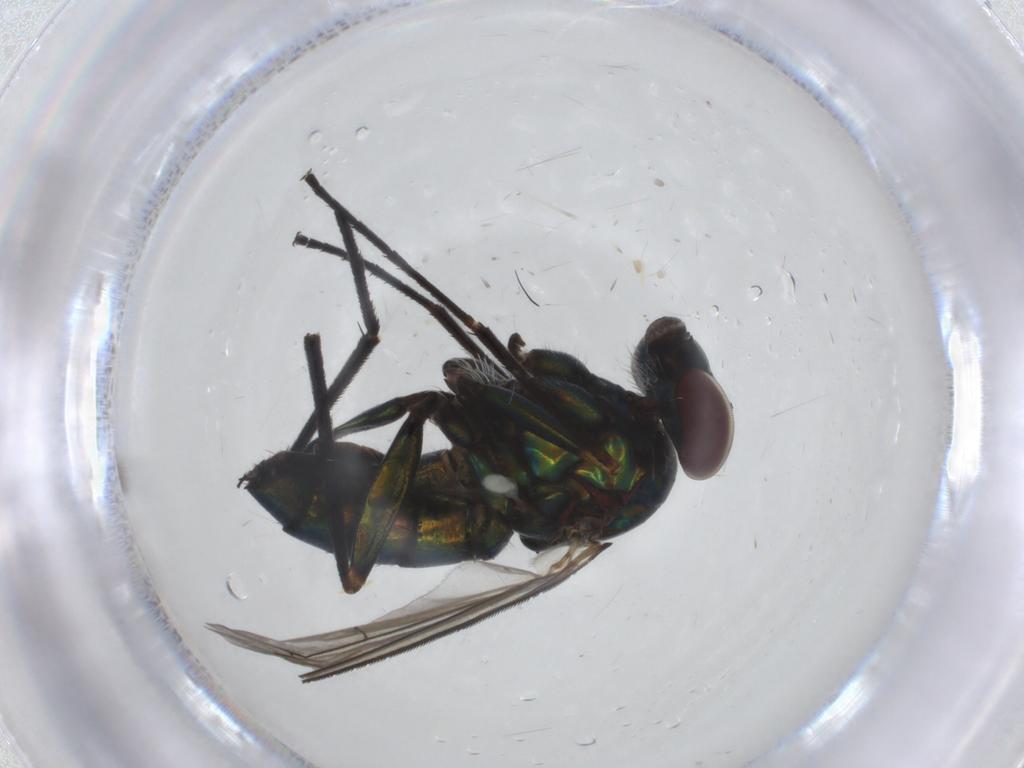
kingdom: Animalia
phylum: Arthropoda
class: Insecta
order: Diptera
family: Dolichopodidae
